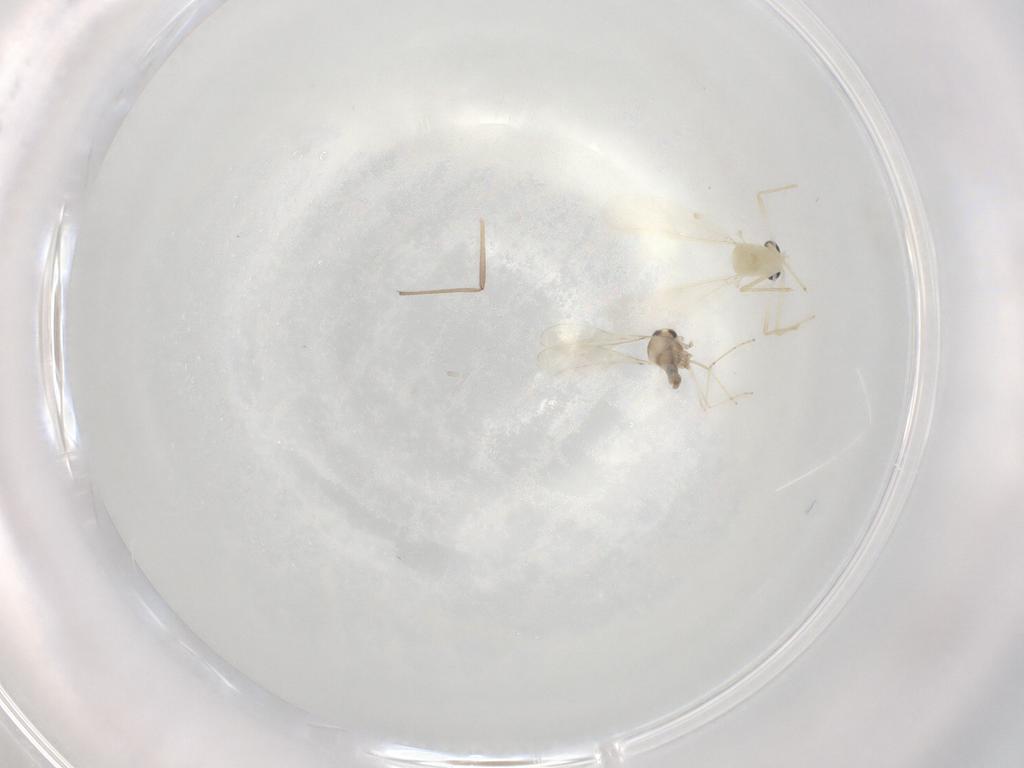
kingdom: Animalia
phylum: Arthropoda
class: Insecta
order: Diptera
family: Chironomidae
